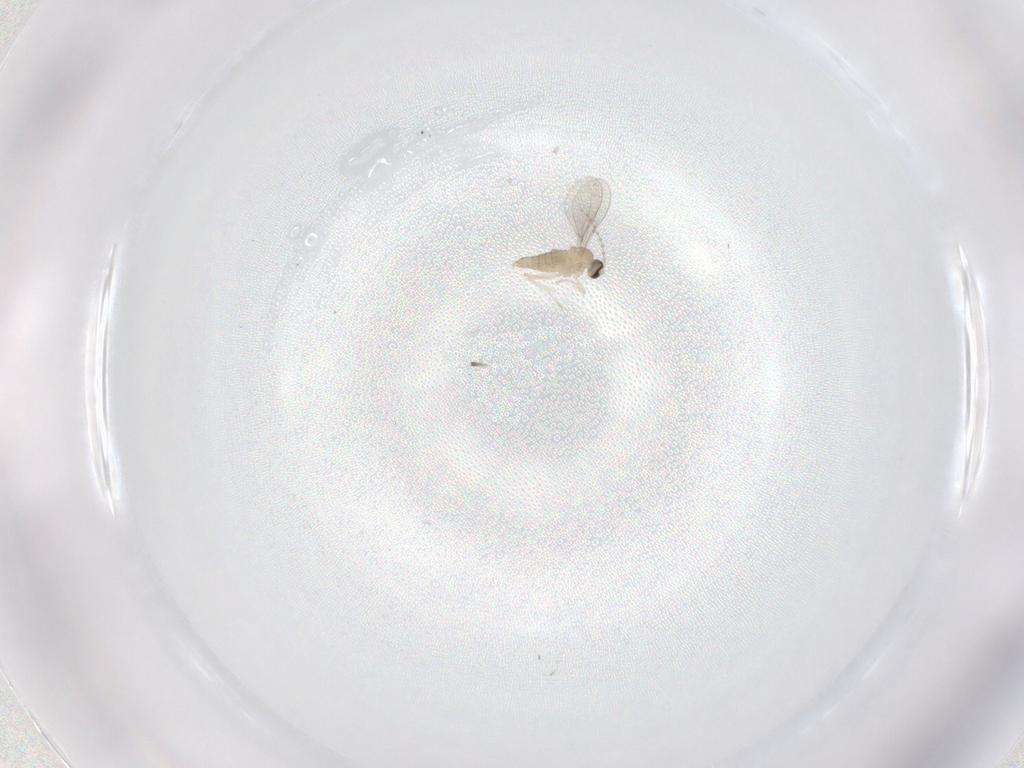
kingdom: Animalia
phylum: Arthropoda
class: Insecta
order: Diptera
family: Cecidomyiidae
